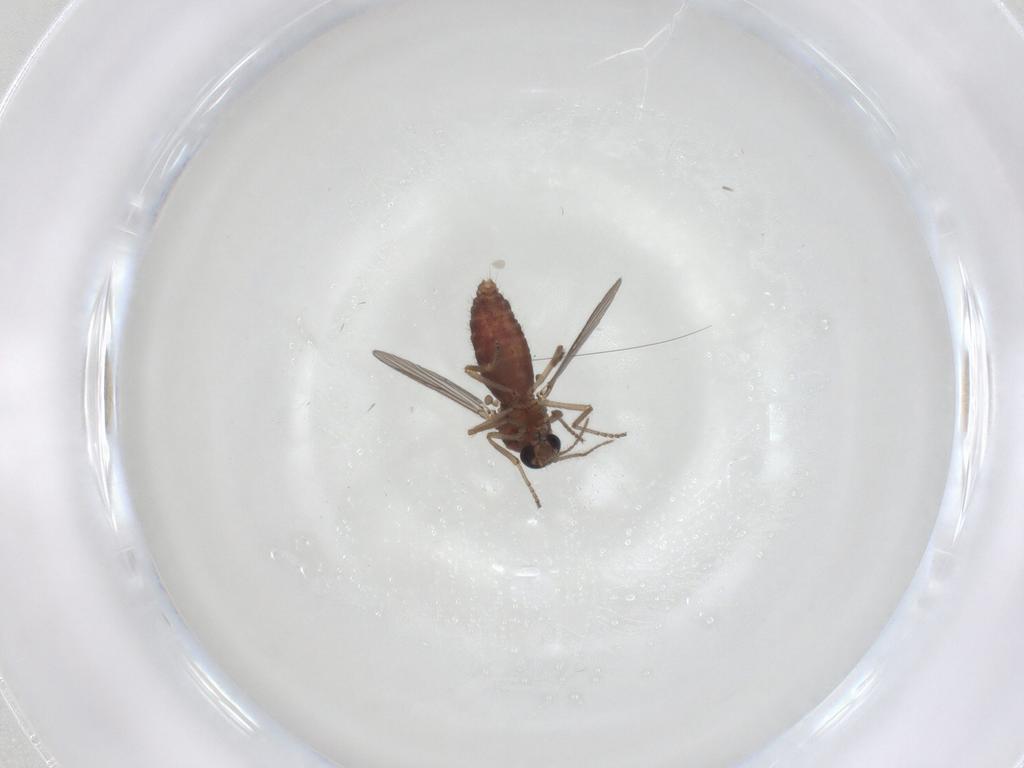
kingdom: Animalia
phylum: Arthropoda
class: Insecta
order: Diptera
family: Ceratopogonidae
